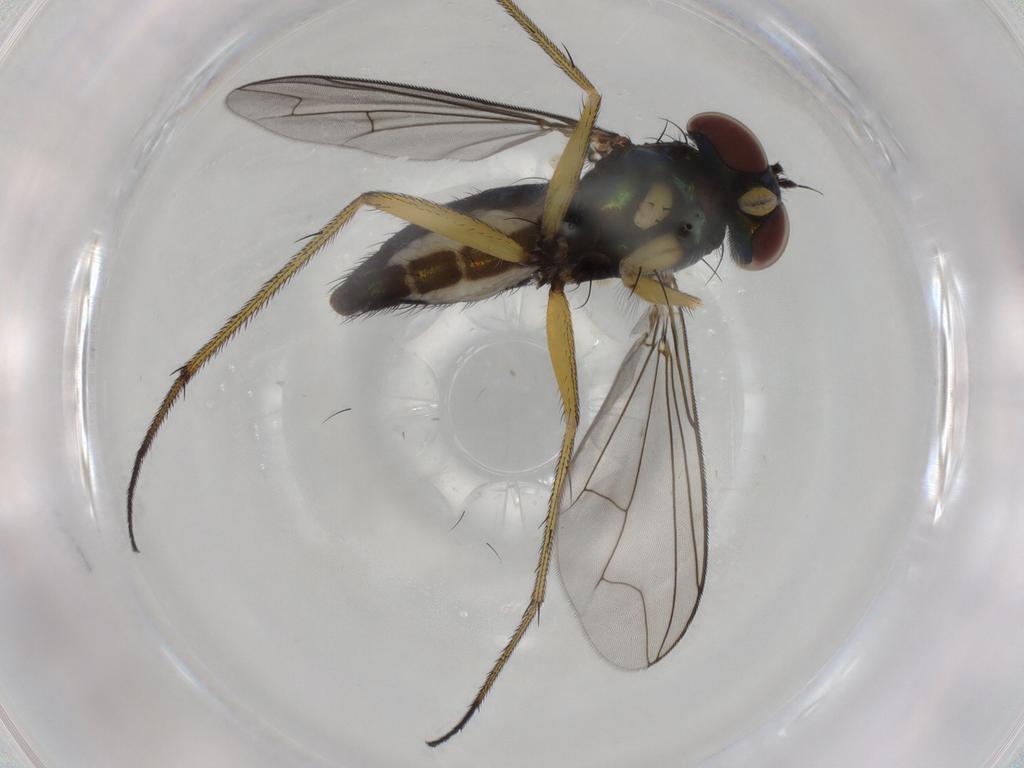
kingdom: Animalia
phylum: Arthropoda
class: Insecta
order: Diptera
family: Dolichopodidae
